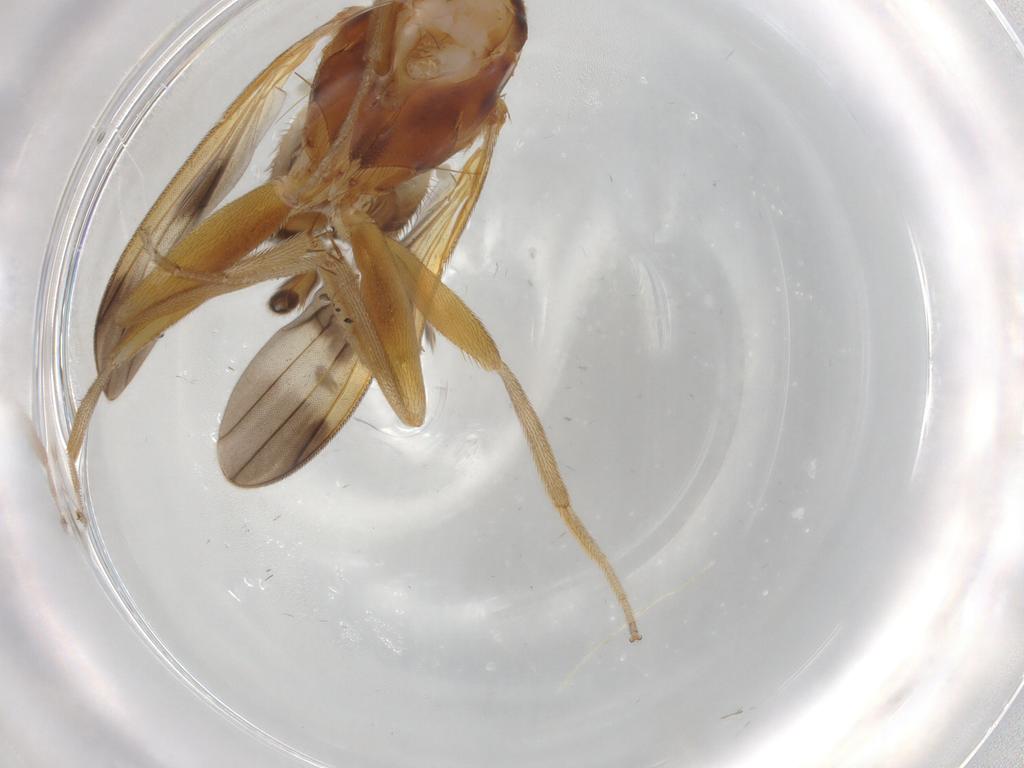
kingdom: Animalia
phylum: Arthropoda
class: Insecta
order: Diptera
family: Clusiidae
